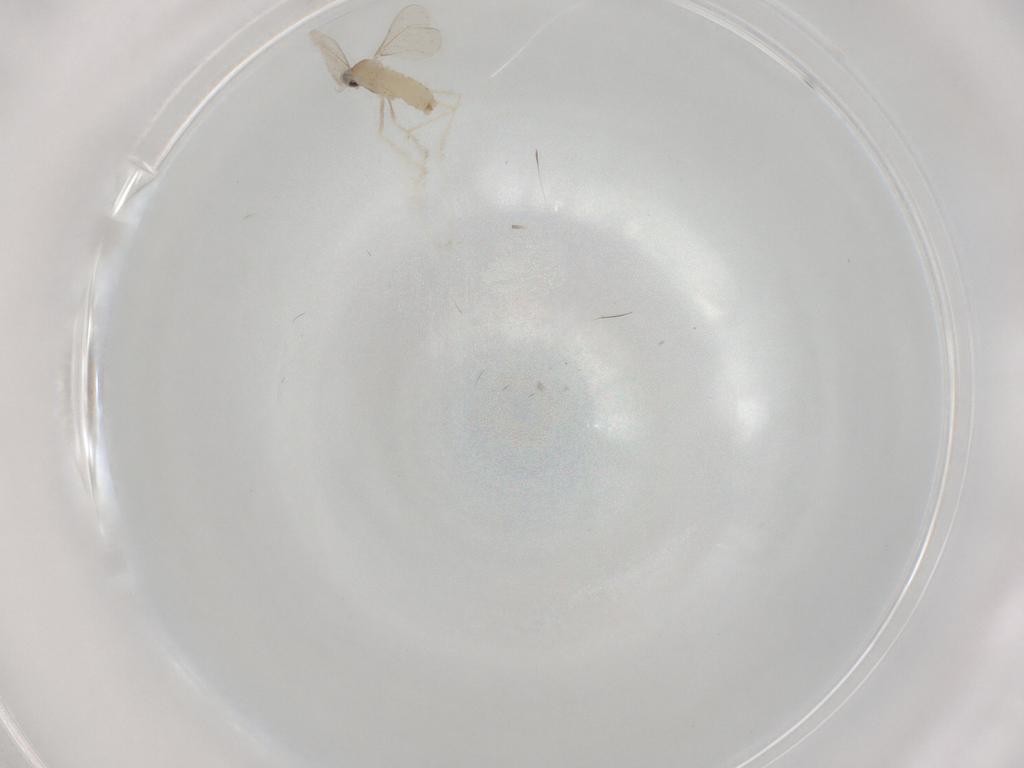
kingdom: Animalia
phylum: Arthropoda
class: Insecta
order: Diptera
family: Cecidomyiidae
